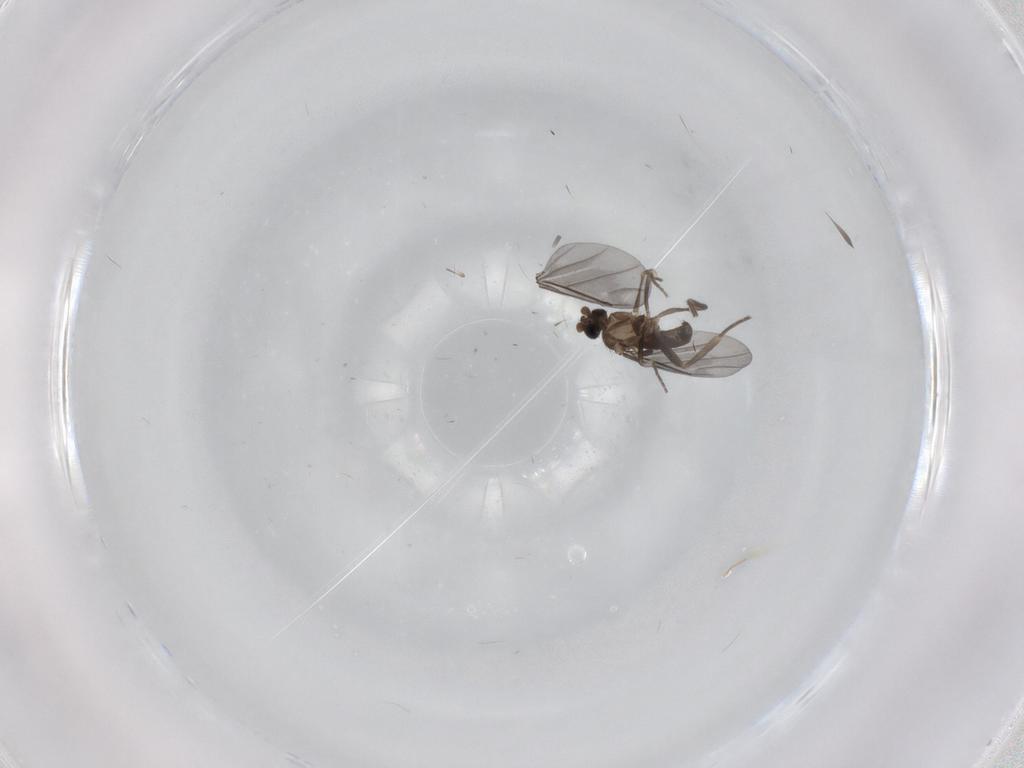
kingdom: Animalia
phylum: Arthropoda
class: Insecta
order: Diptera
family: Phoridae
